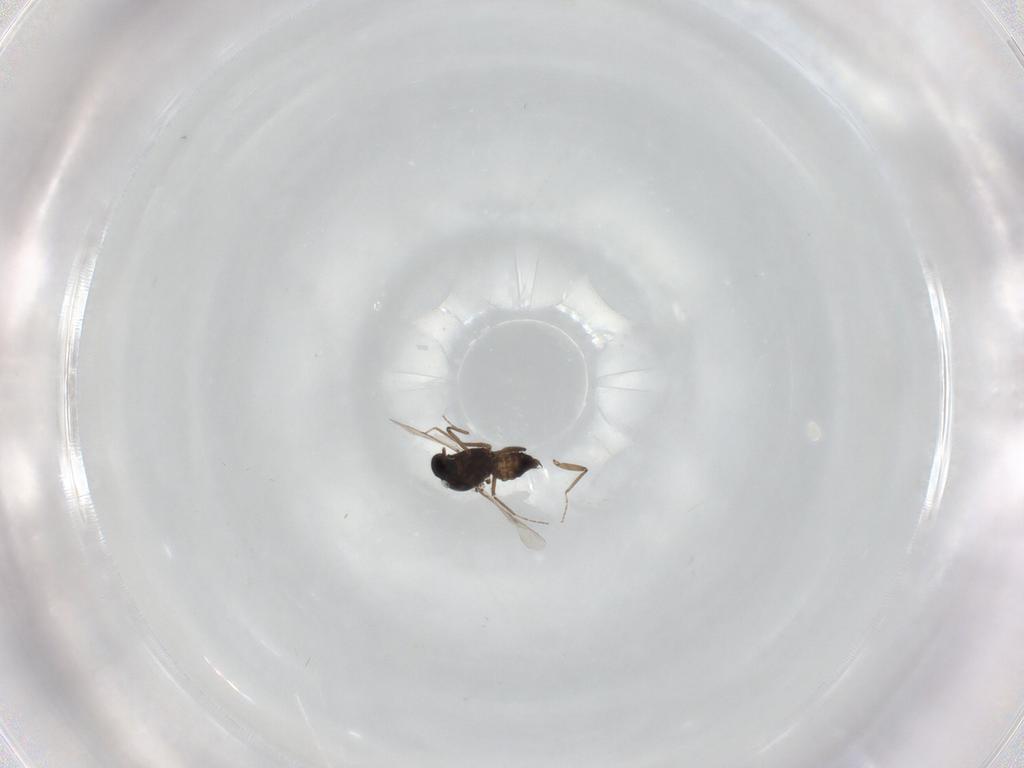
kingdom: Animalia
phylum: Arthropoda
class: Insecta
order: Diptera
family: Ceratopogonidae
